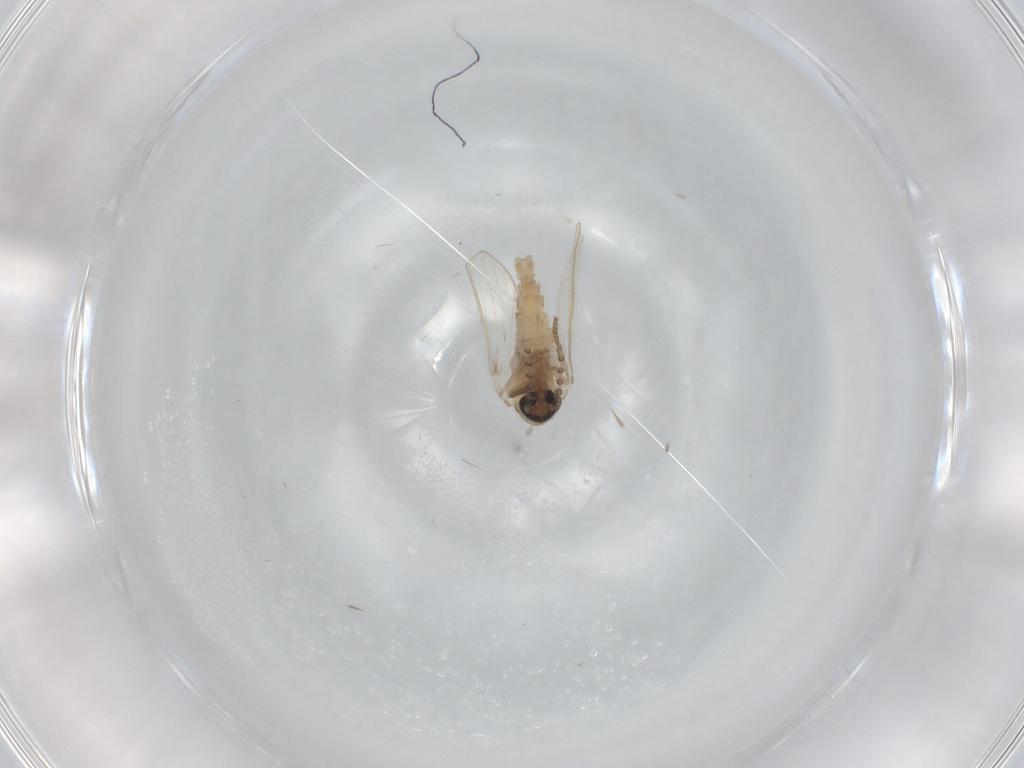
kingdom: Animalia
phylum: Arthropoda
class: Insecta
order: Diptera
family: Psychodidae
